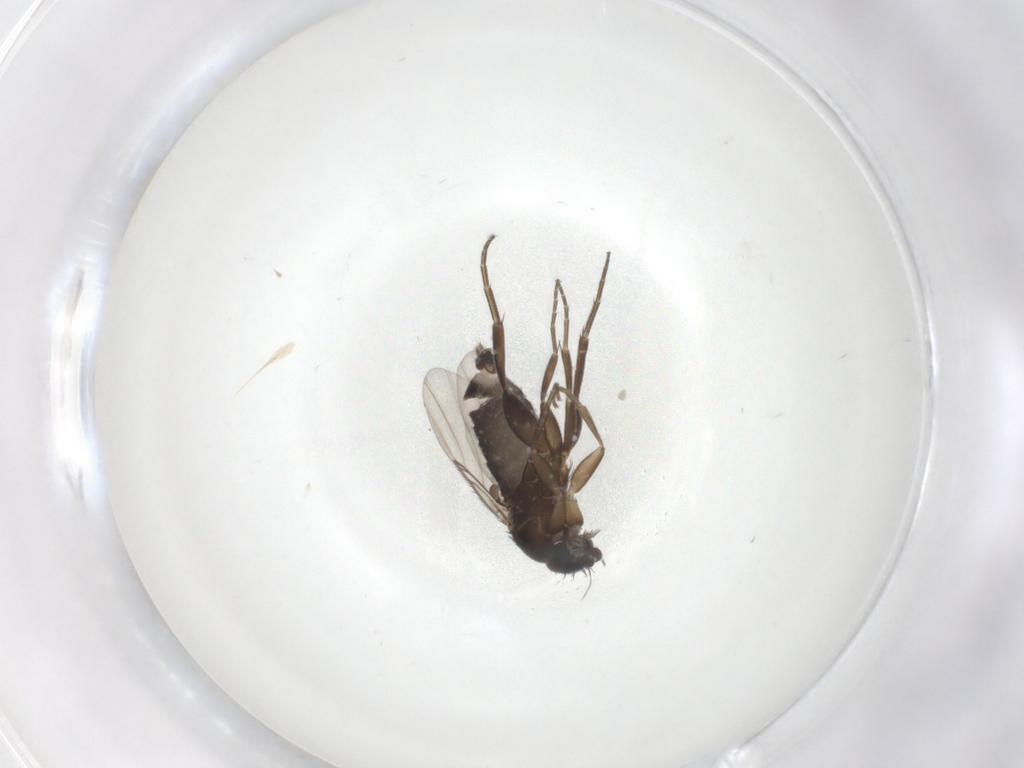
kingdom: Animalia
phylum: Arthropoda
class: Insecta
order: Diptera
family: Phoridae
